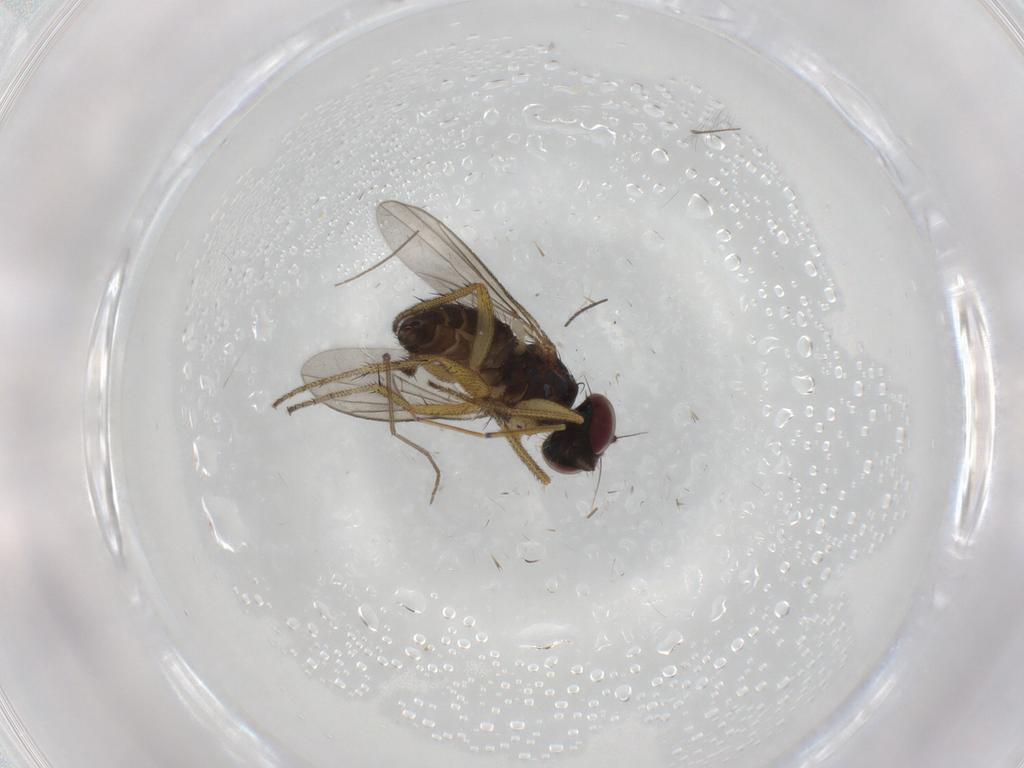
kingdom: Animalia
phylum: Arthropoda
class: Insecta
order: Diptera
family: Dolichopodidae
